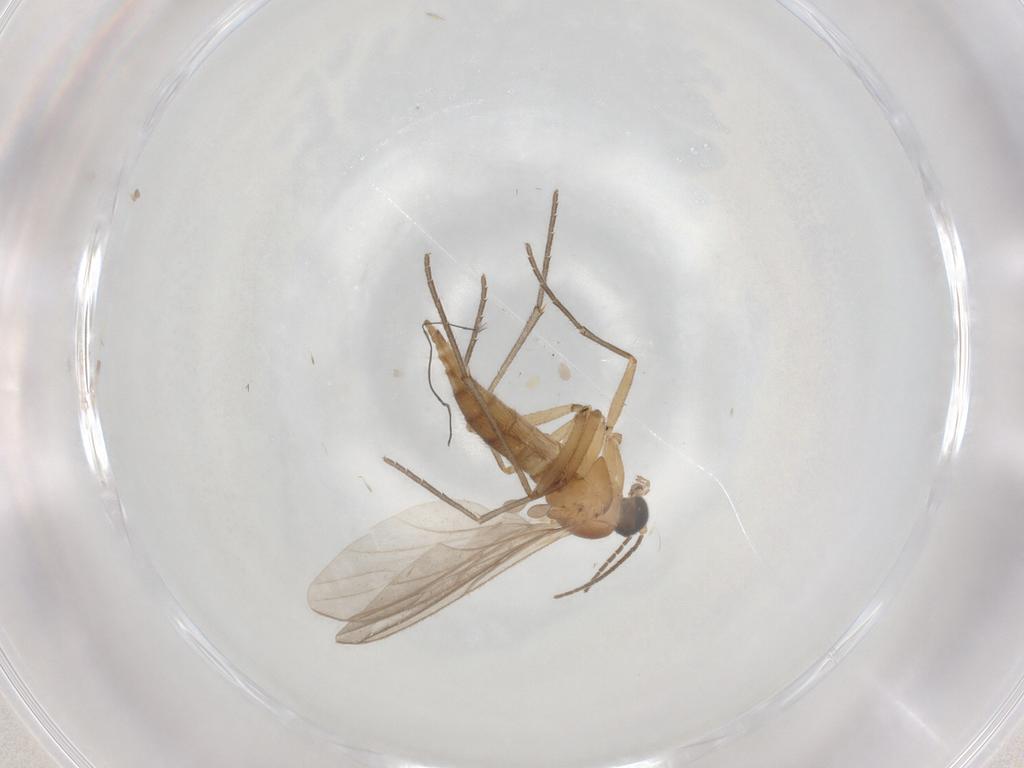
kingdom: Animalia
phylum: Arthropoda
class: Insecta
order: Diptera
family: Sciaridae
